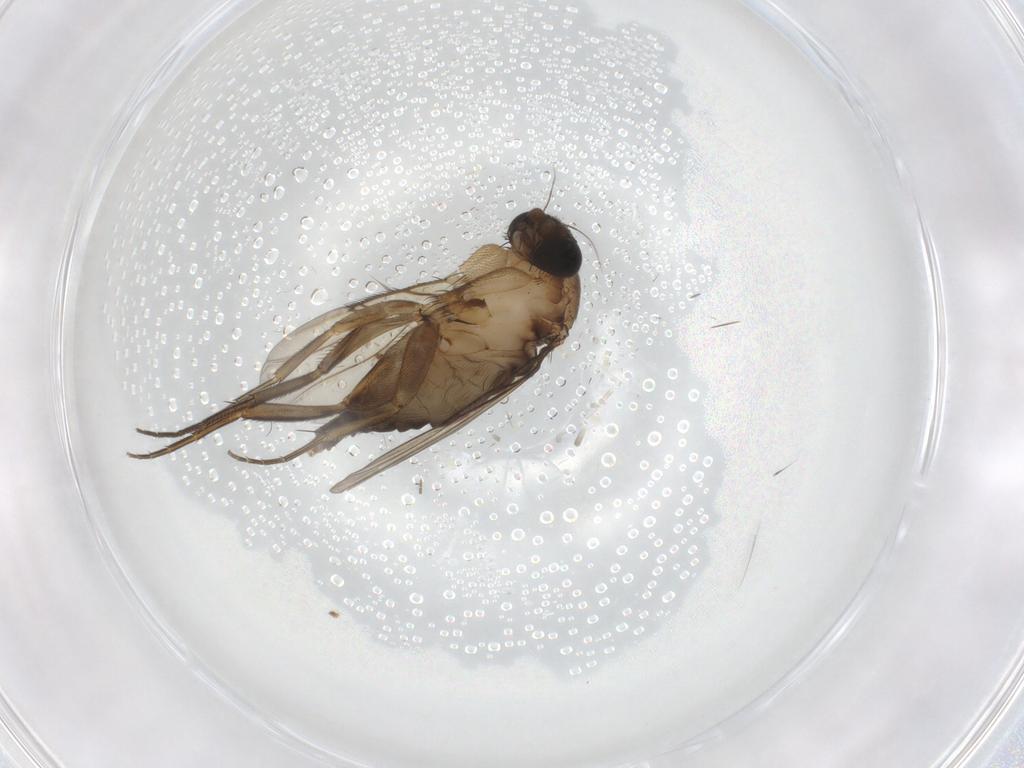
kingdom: Animalia
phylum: Arthropoda
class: Insecta
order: Diptera
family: Phoridae
